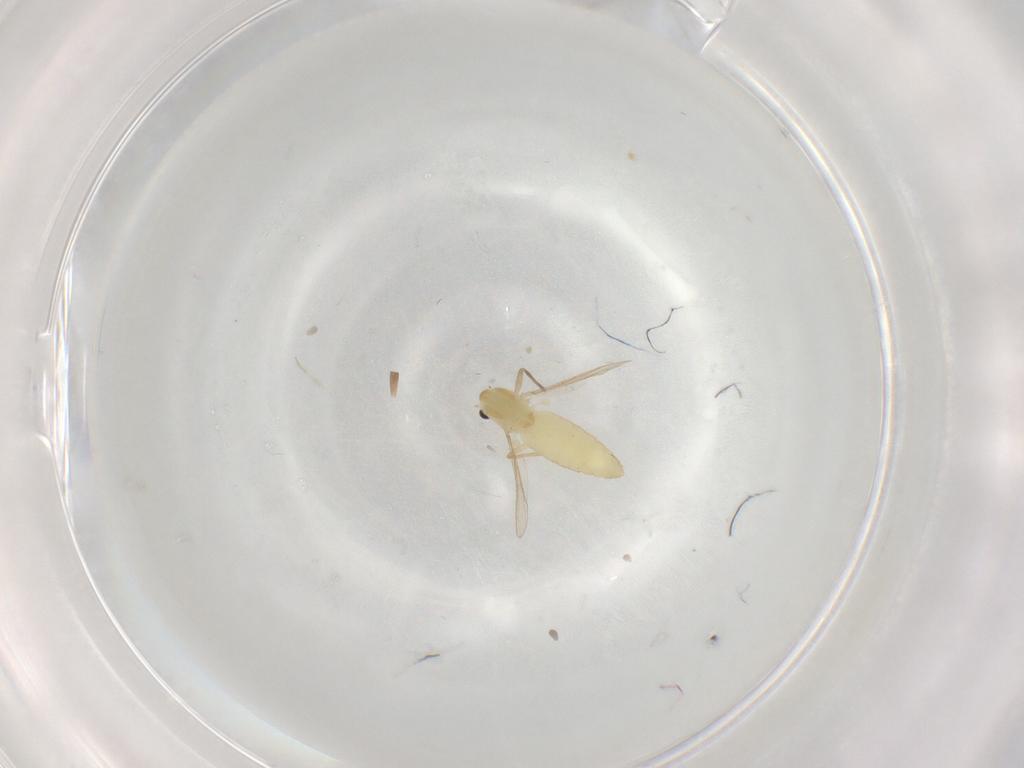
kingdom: Animalia
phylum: Arthropoda
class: Insecta
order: Diptera
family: Chironomidae
